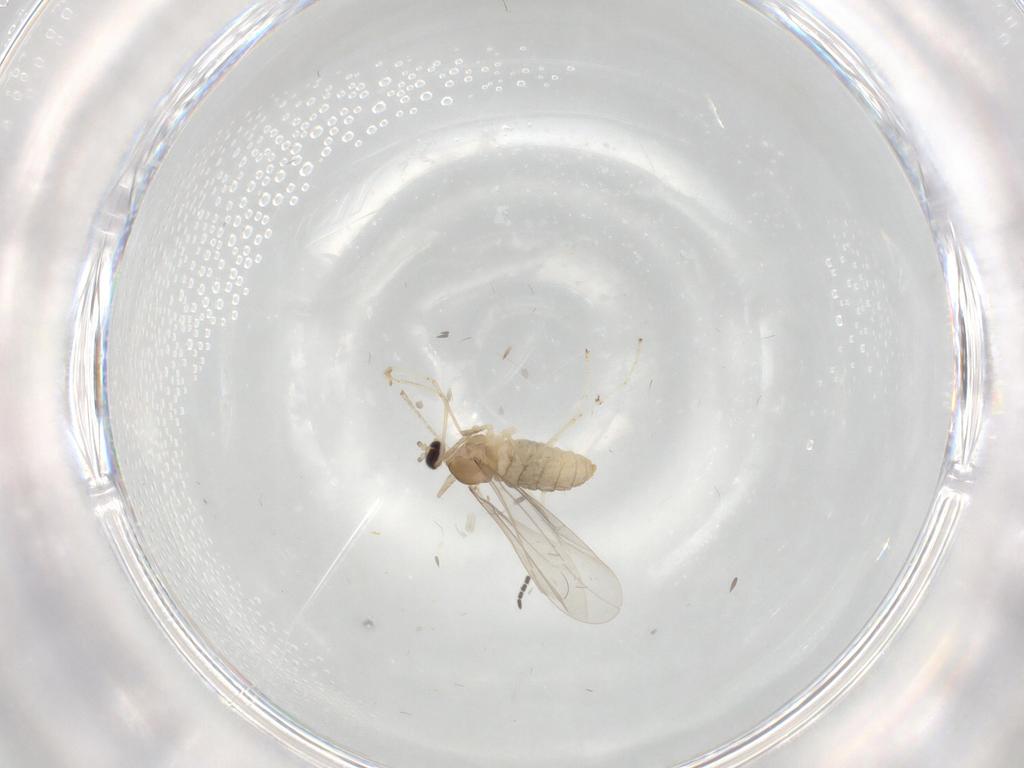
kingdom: Animalia
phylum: Arthropoda
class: Insecta
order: Diptera
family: Cecidomyiidae
